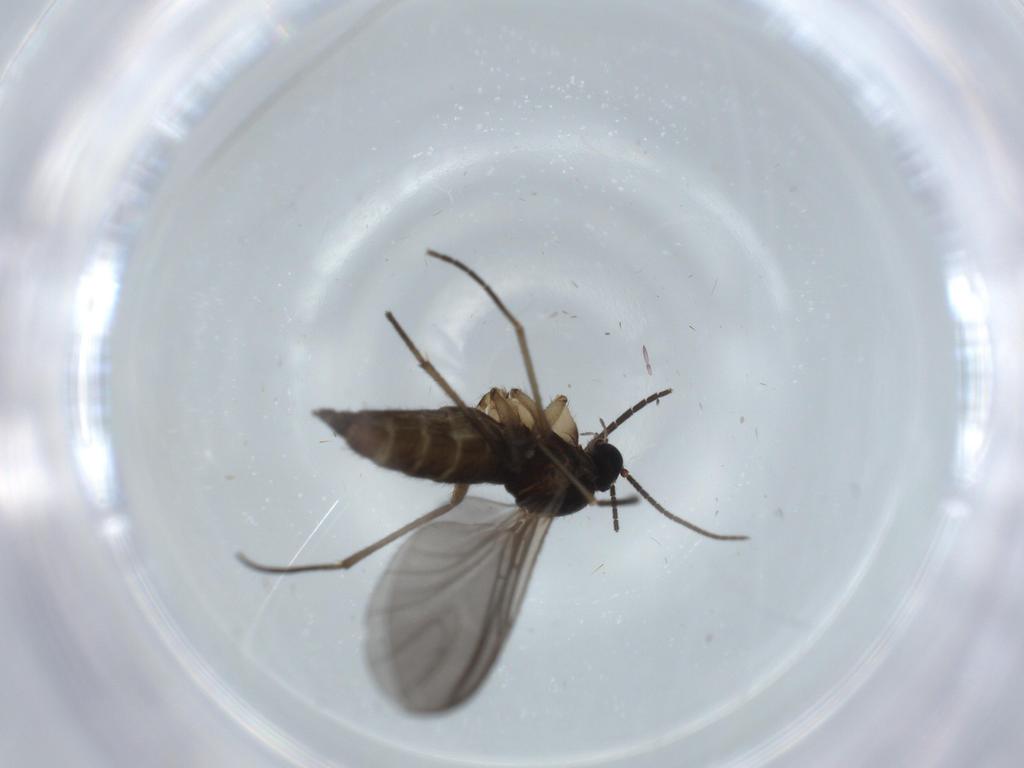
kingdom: Animalia
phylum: Arthropoda
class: Insecta
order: Diptera
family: Sciaridae
